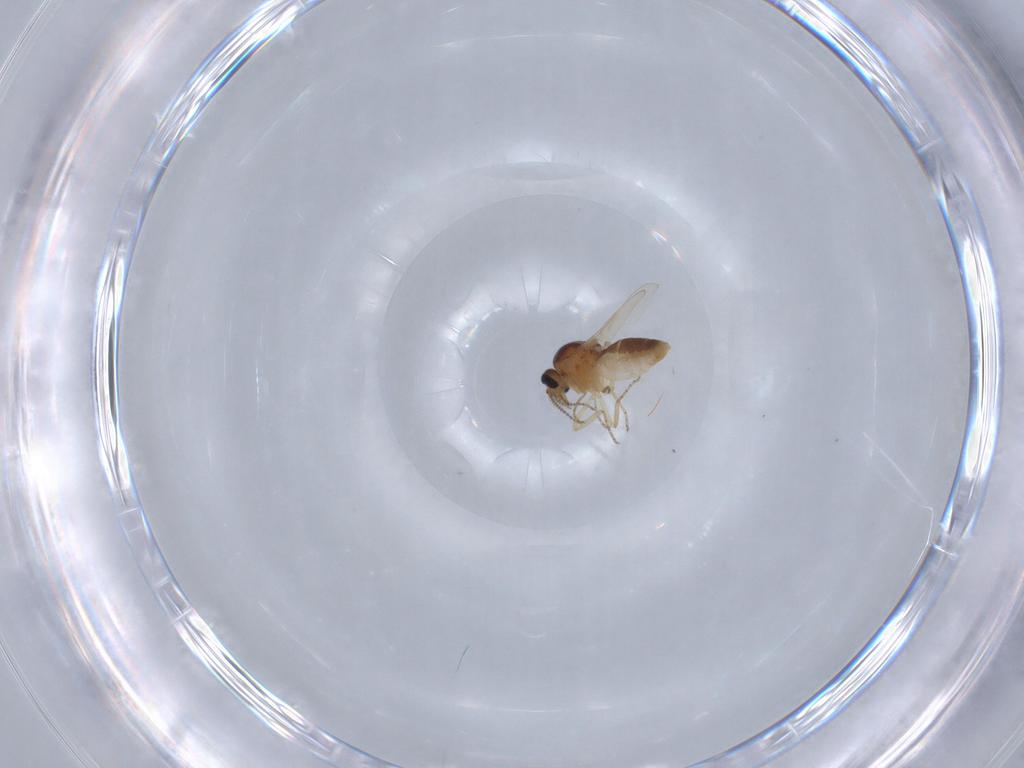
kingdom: Animalia
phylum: Arthropoda
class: Insecta
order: Diptera
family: Ceratopogonidae
